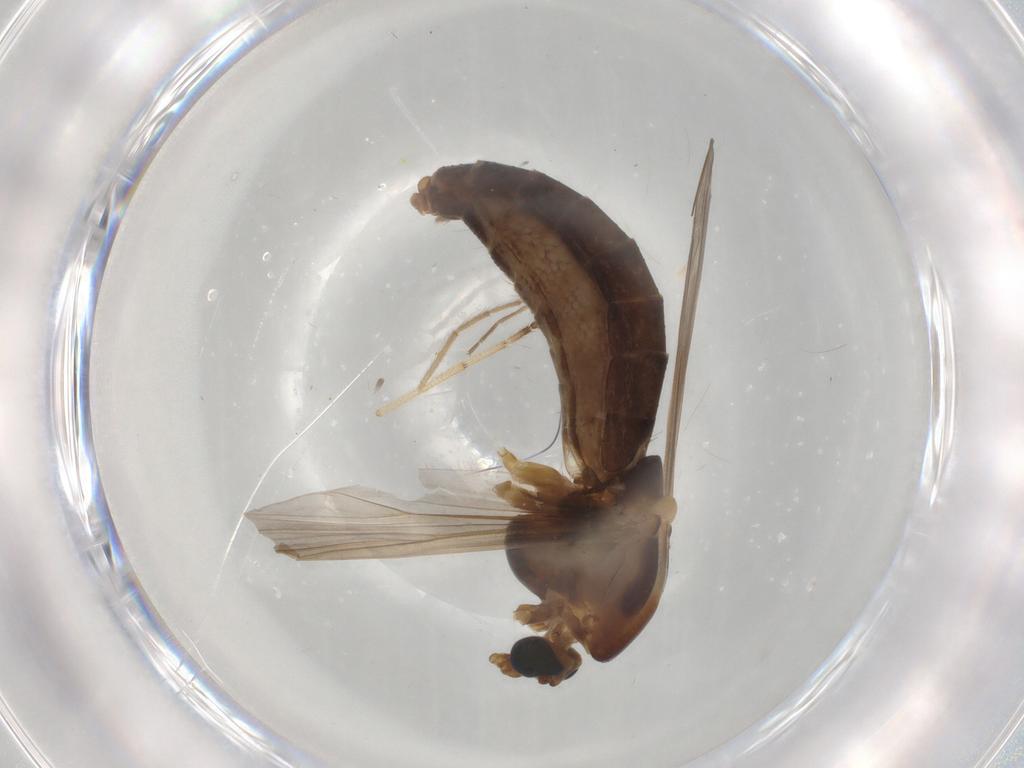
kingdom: Animalia
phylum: Arthropoda
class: Insecta
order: Diptera
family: Chironomidae
